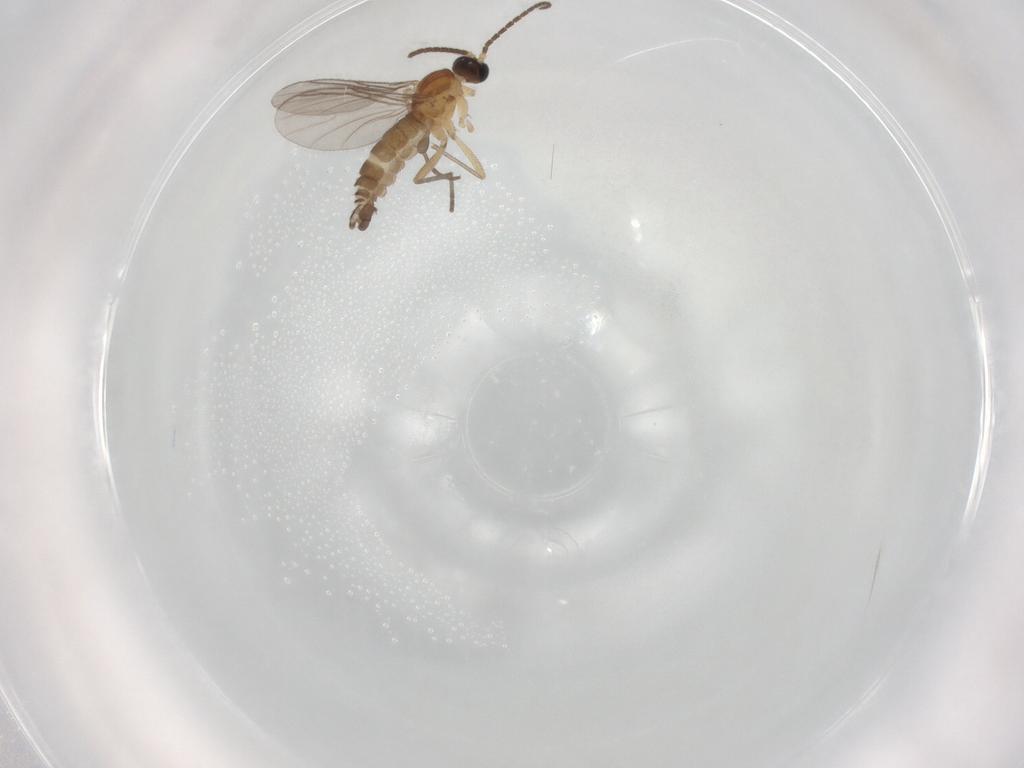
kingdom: Animalia
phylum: Arthropoda
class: Insecta
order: Diptera
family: Sciaridae
